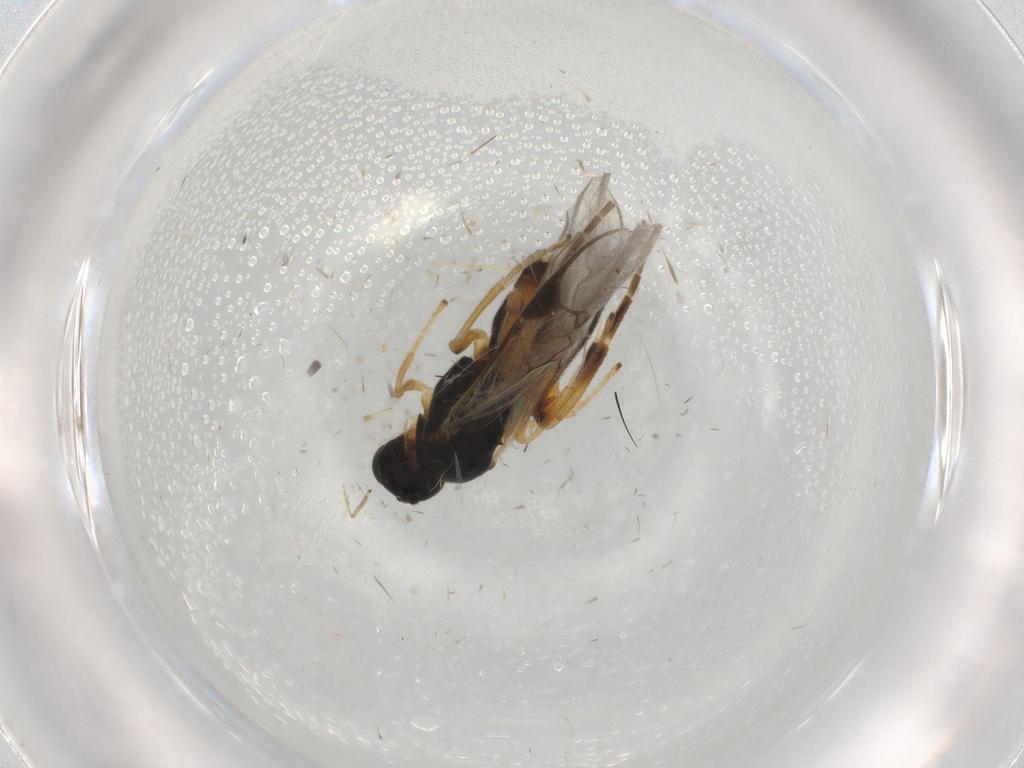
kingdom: Animalia
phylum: Arthropoda
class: Insecta
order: Hymenoptera
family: Braconidae
